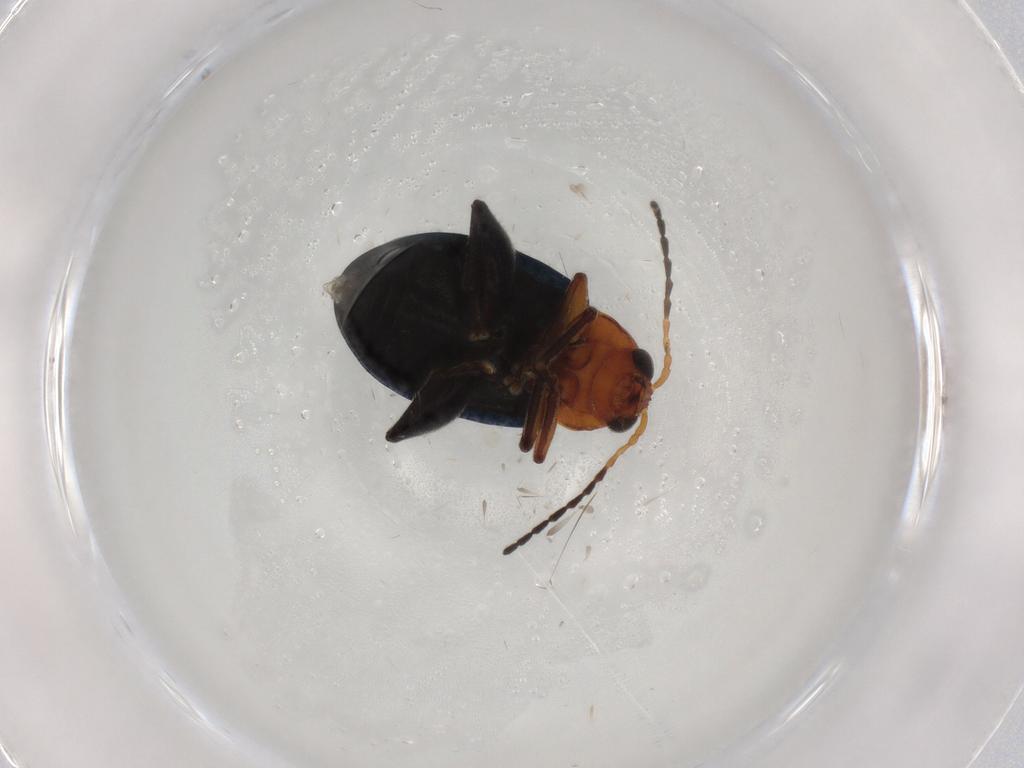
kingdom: Animalia
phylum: Arthropoda
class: Insecta
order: Coleoptera
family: Chrysomelidae
